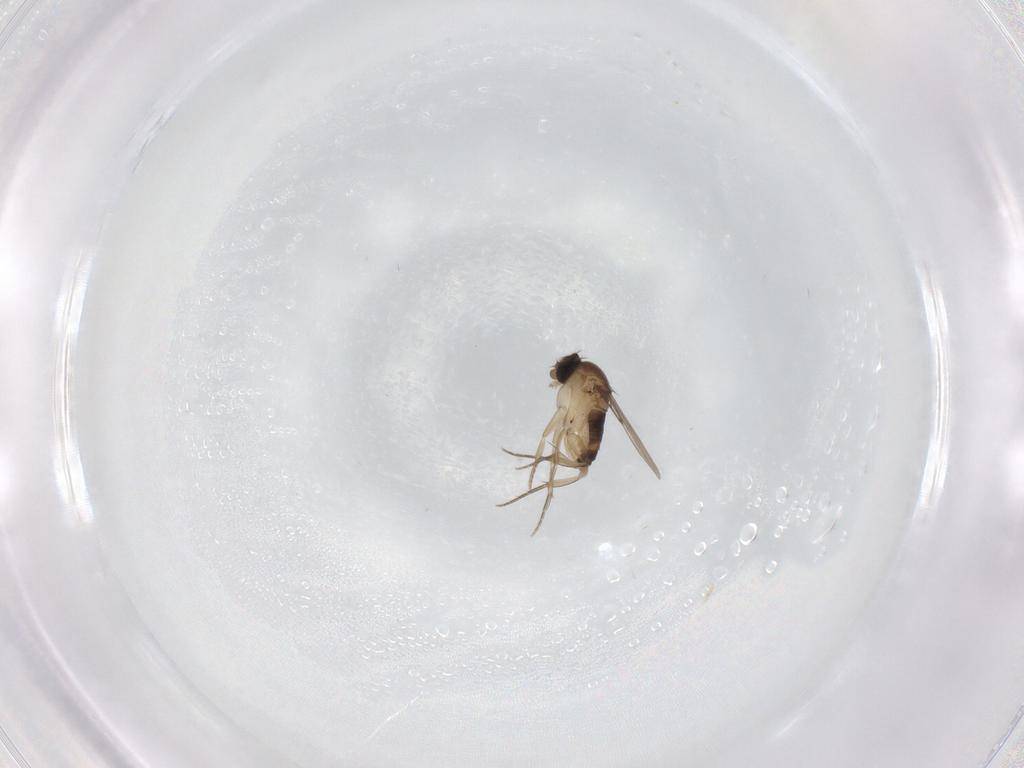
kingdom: Animalia
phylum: Arthropoda
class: Insecta
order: Diptera
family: Phoridae
